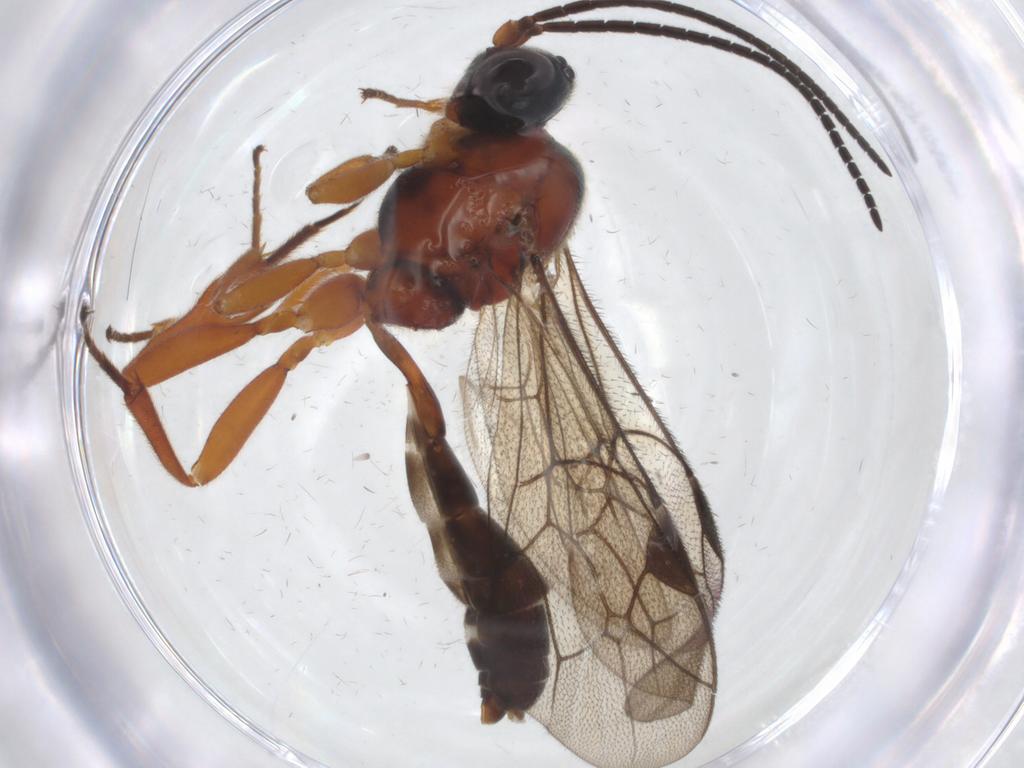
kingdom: Animalia
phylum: Arthropoda
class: Insecta
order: Hymenoptera
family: Ichneumonidae
